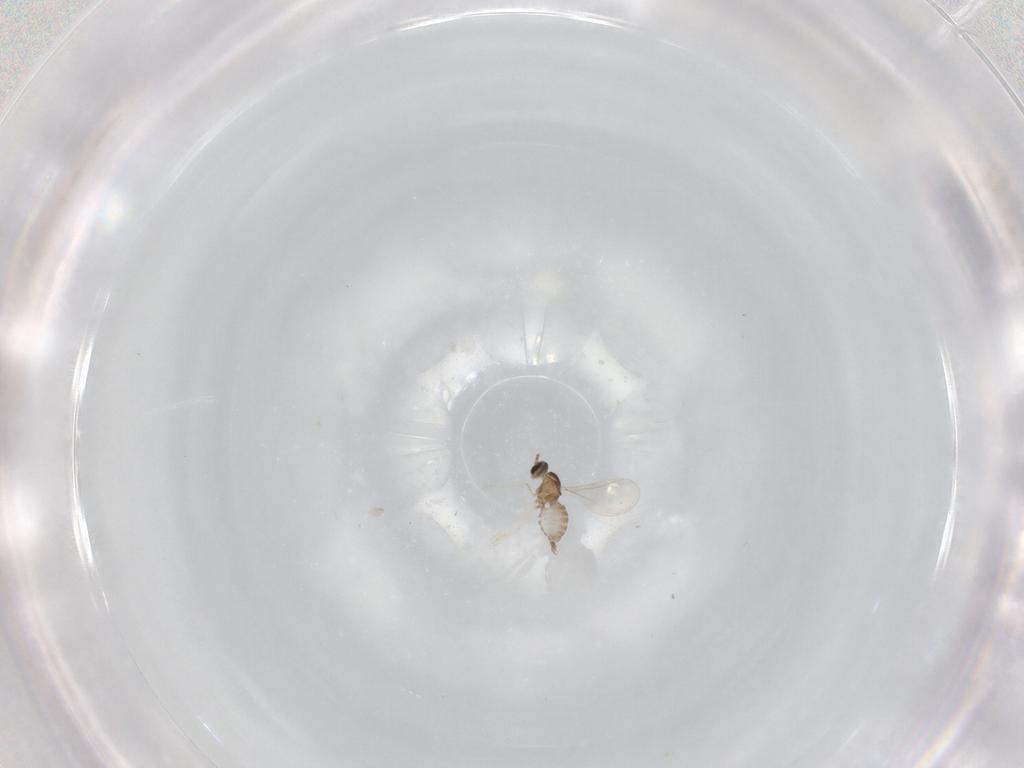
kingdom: Animalia
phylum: Arthropoda
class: Insecta
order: Diptera
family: Cecidomyiidae
